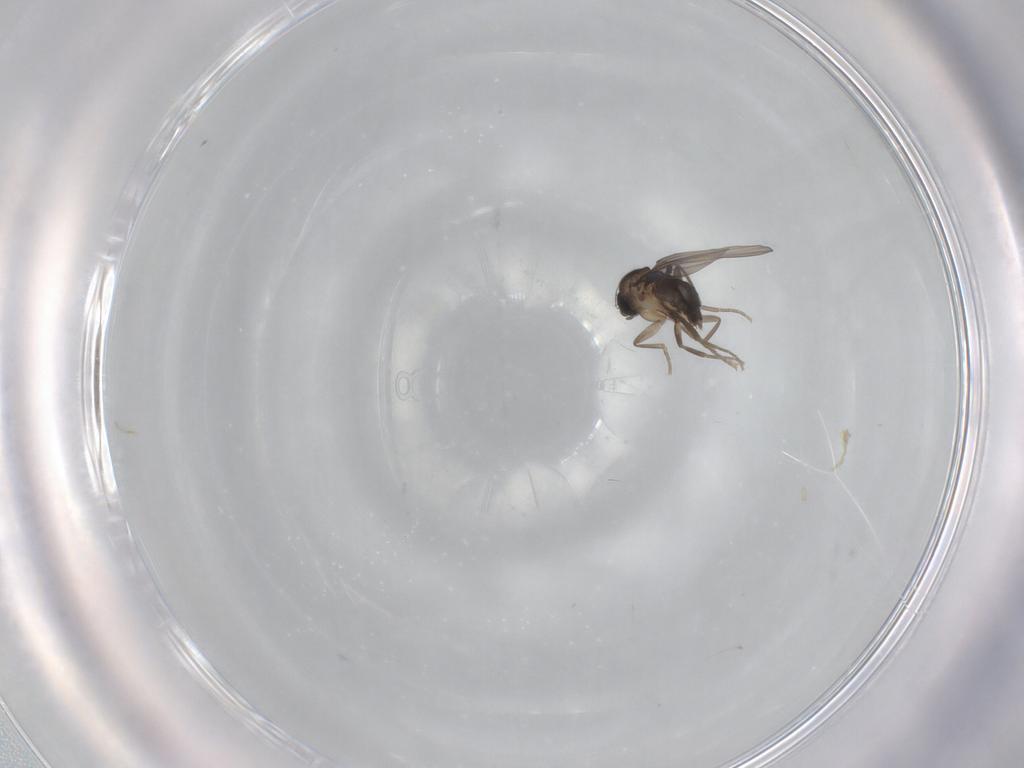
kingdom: Animalia
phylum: Arthropoda
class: Insecta
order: Diptera
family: Phoridae
